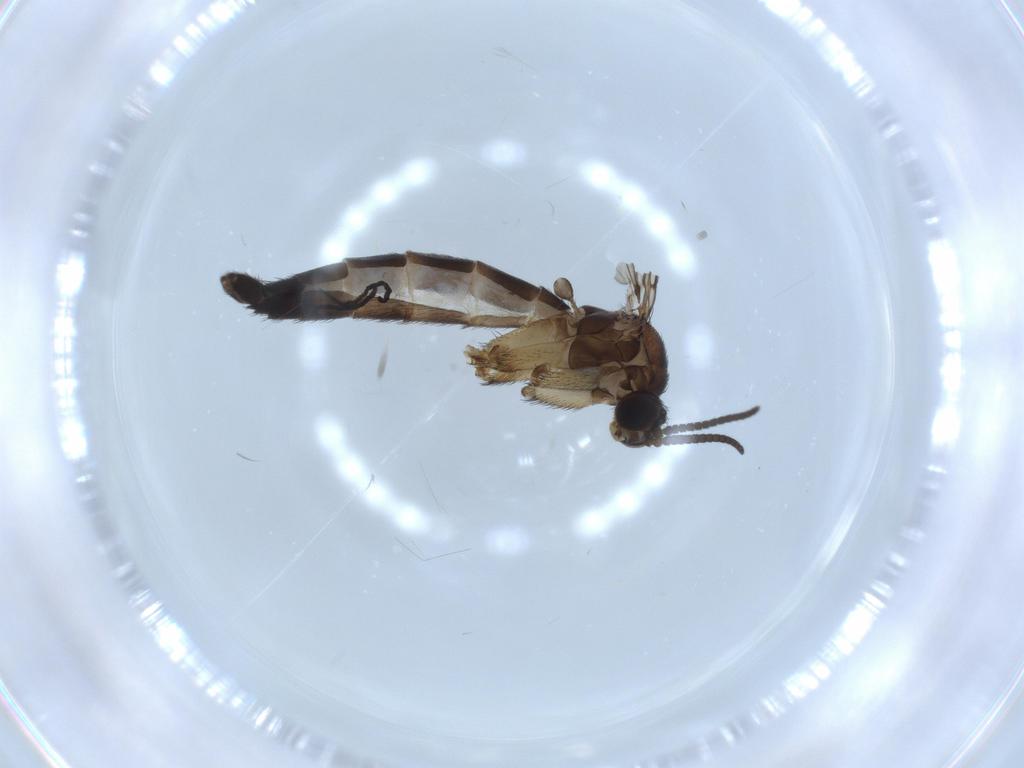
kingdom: Animalia
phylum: Arthropoda
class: Insecta
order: Diptera
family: Keroplatidae
